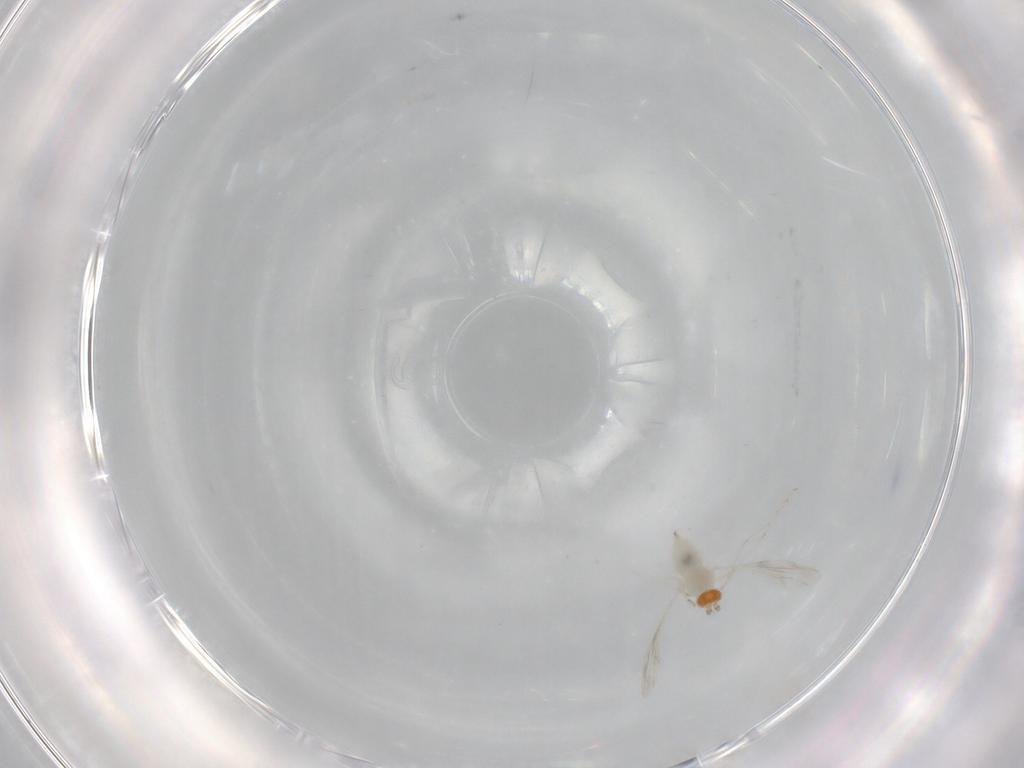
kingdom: Animalia
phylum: Arthropoda
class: Insecta
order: Diptera
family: Cecidomyiidae
